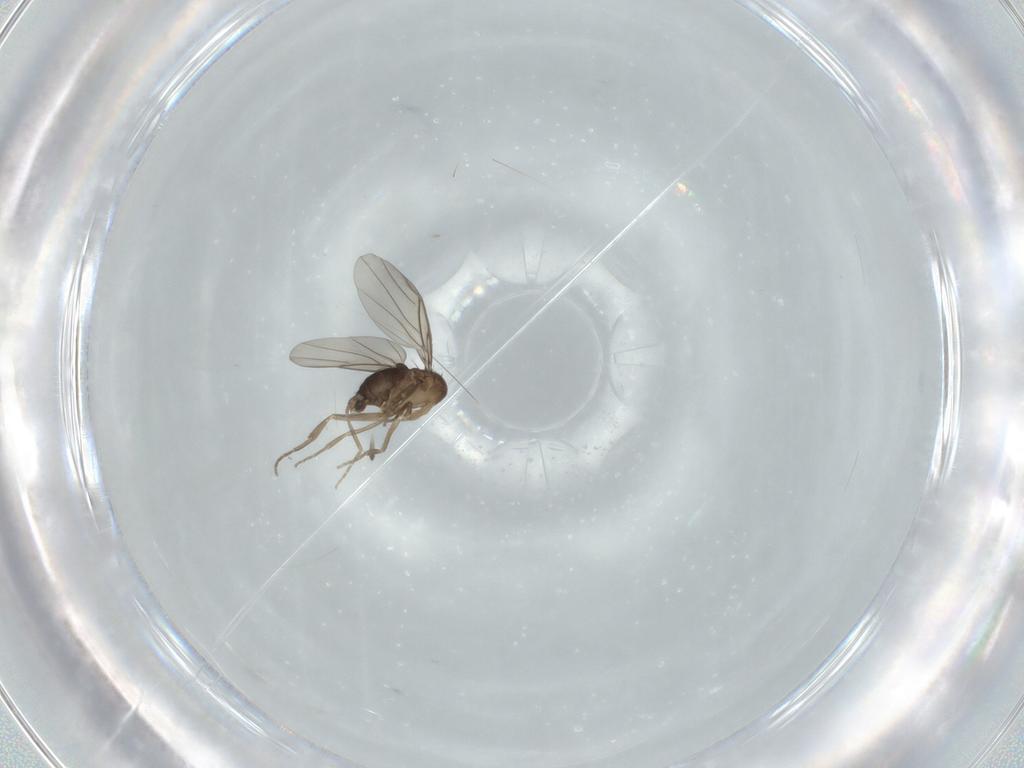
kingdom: Animalia
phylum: Arthropoda
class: Insecta
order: Diptera
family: Phoridae
